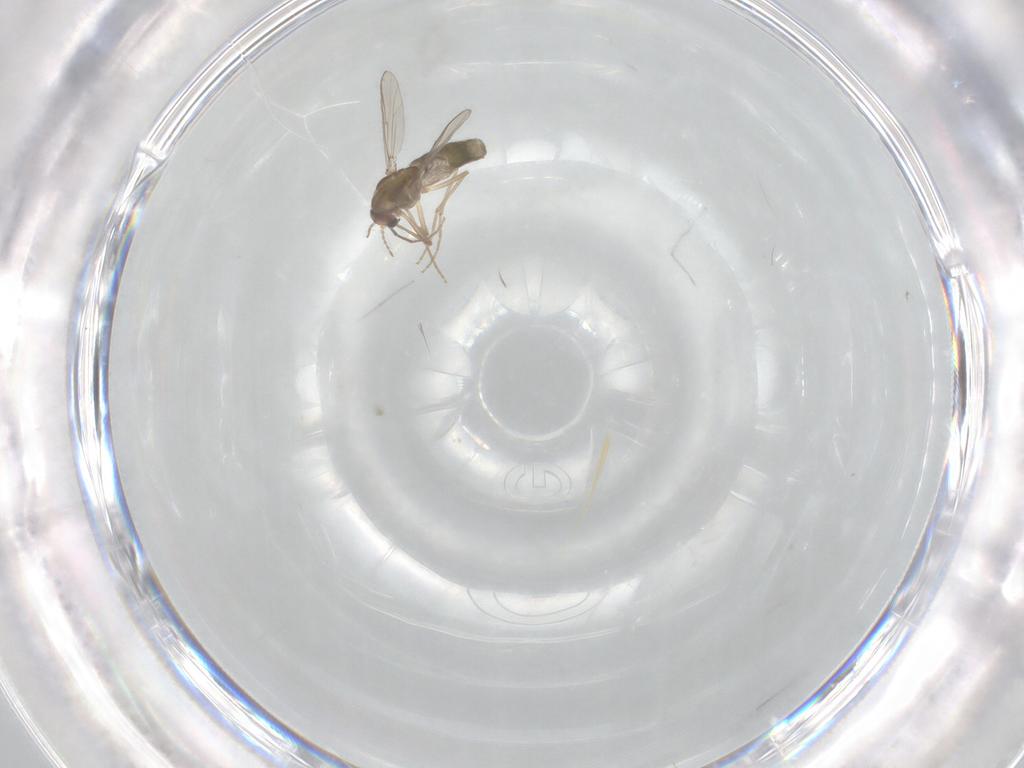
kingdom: Animalia
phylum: Arthropoda
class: Insecta
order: Diptera
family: Chironomidae
